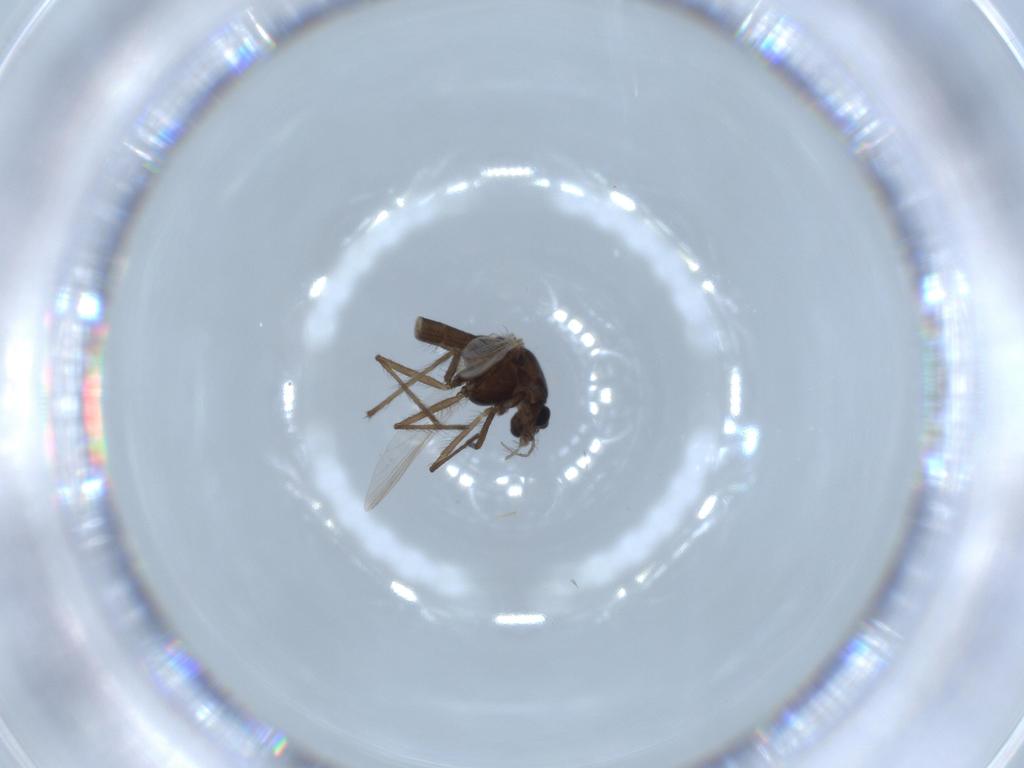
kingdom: Animalia
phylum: Arthropoda
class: Insecta
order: Diptera
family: Chironomidae
